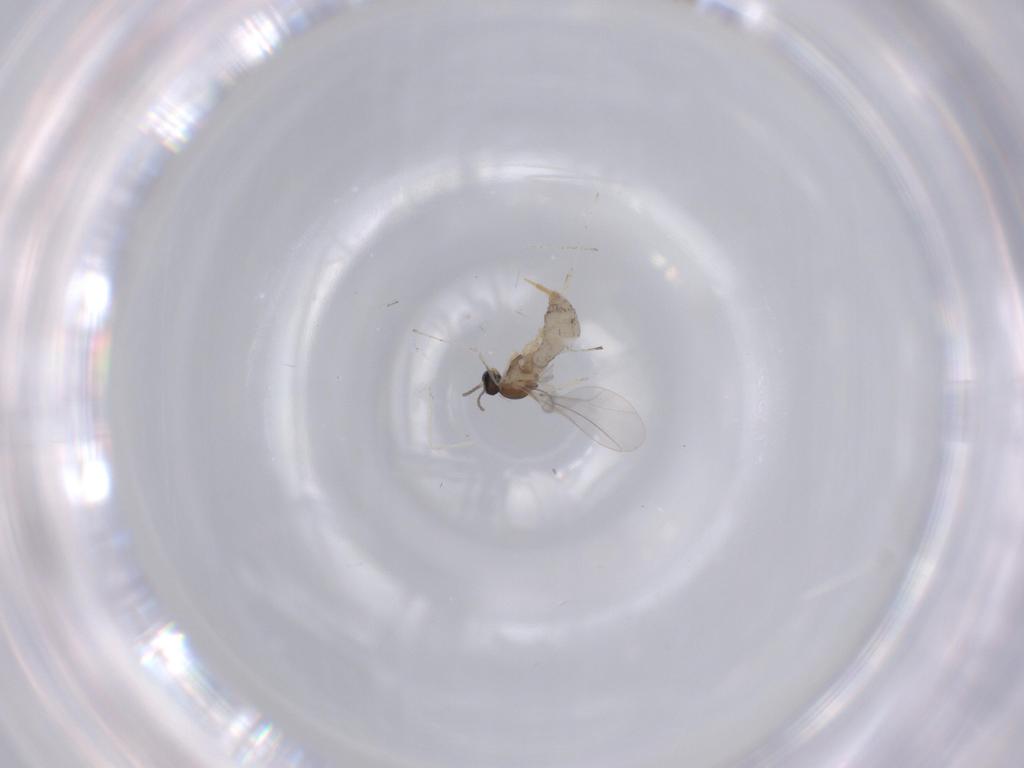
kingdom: Animalia
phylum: Arthropoda
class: Insecta
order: Diptera
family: Cecidomyiidae
